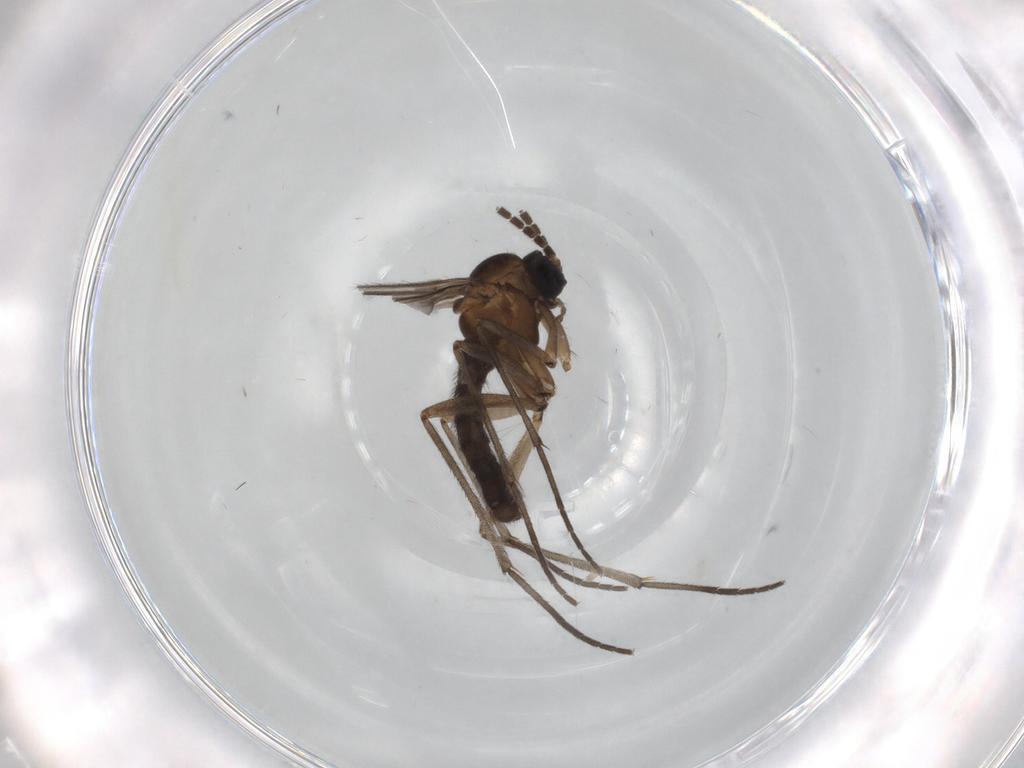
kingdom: Animalia
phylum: Arthropoda
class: Insecta
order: Diptera
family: Sciaridae
